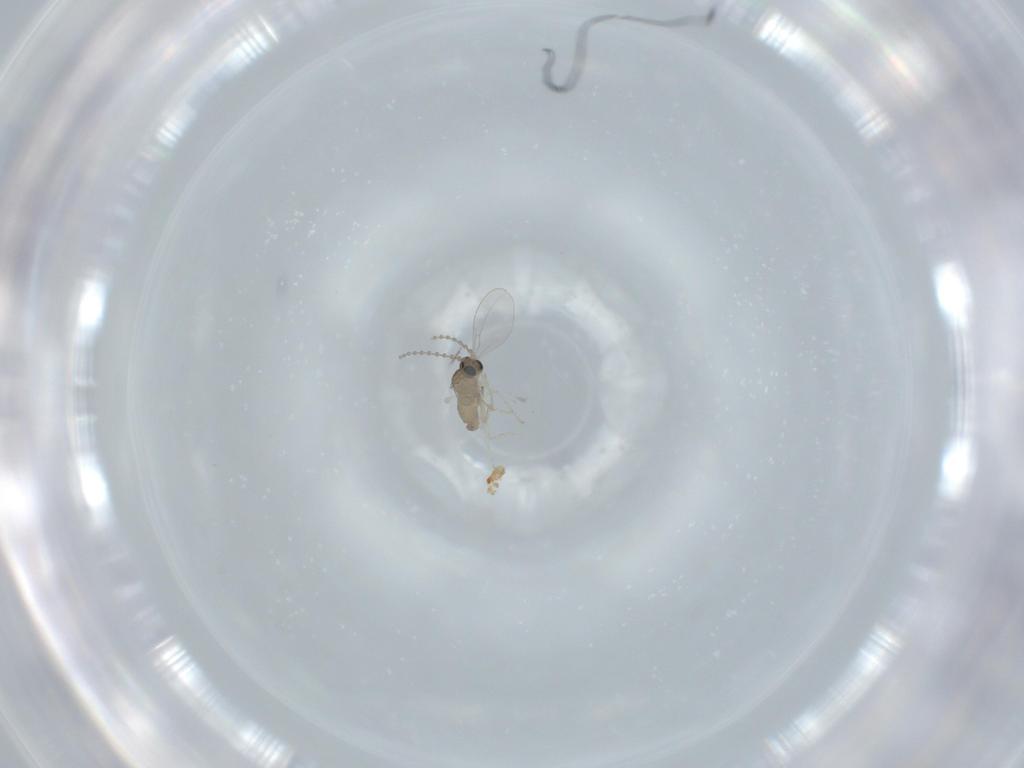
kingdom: Animalia
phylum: Arthropoda
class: Insecta
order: Diptera
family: Cecidomyiidae
